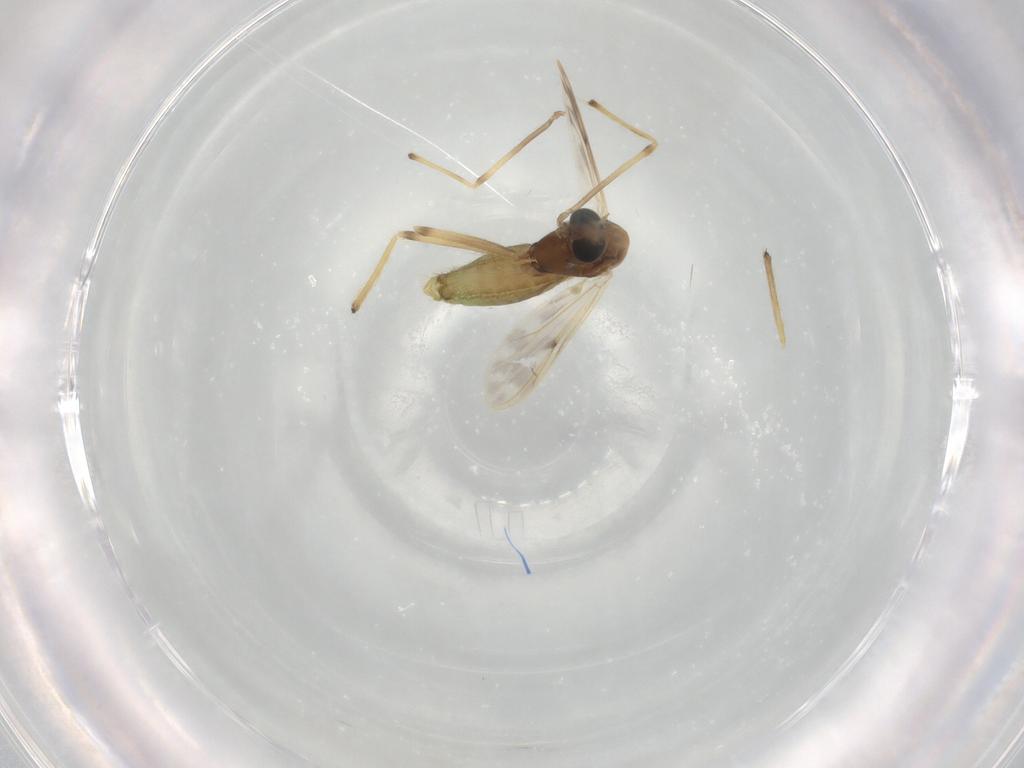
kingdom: Animalia
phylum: Arthropoda
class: Insecta
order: Diptera
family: Chironomidae
